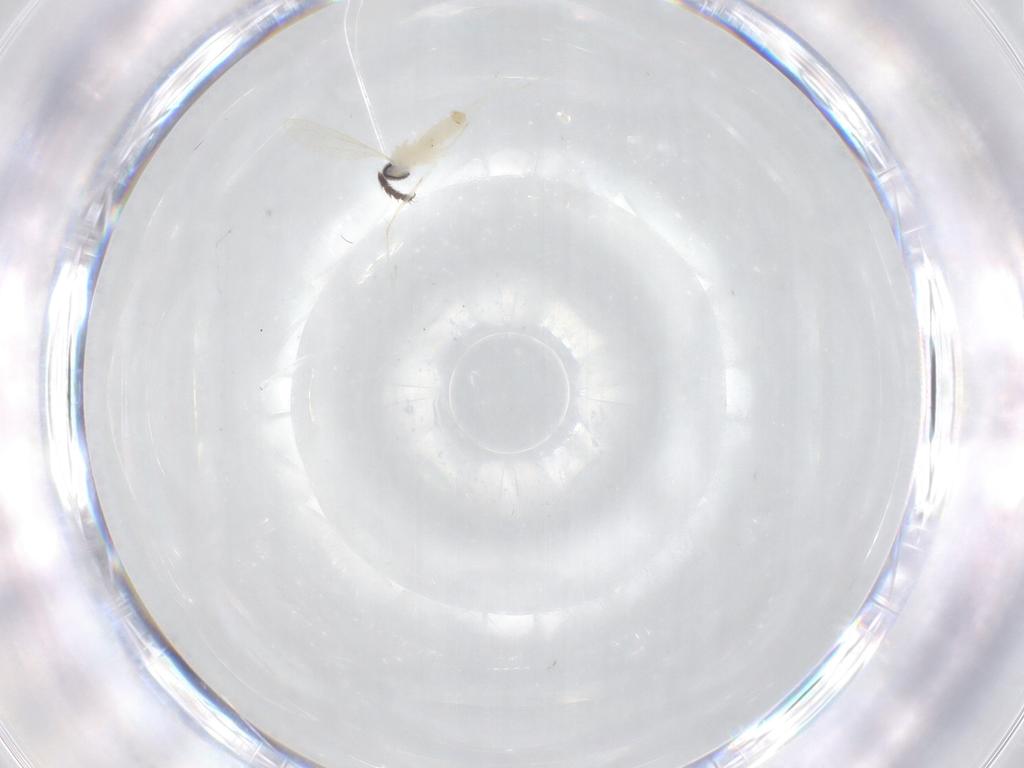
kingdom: Animalia
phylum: Arthropoda
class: Insecta
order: Diptera
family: Cecidomyiidae
